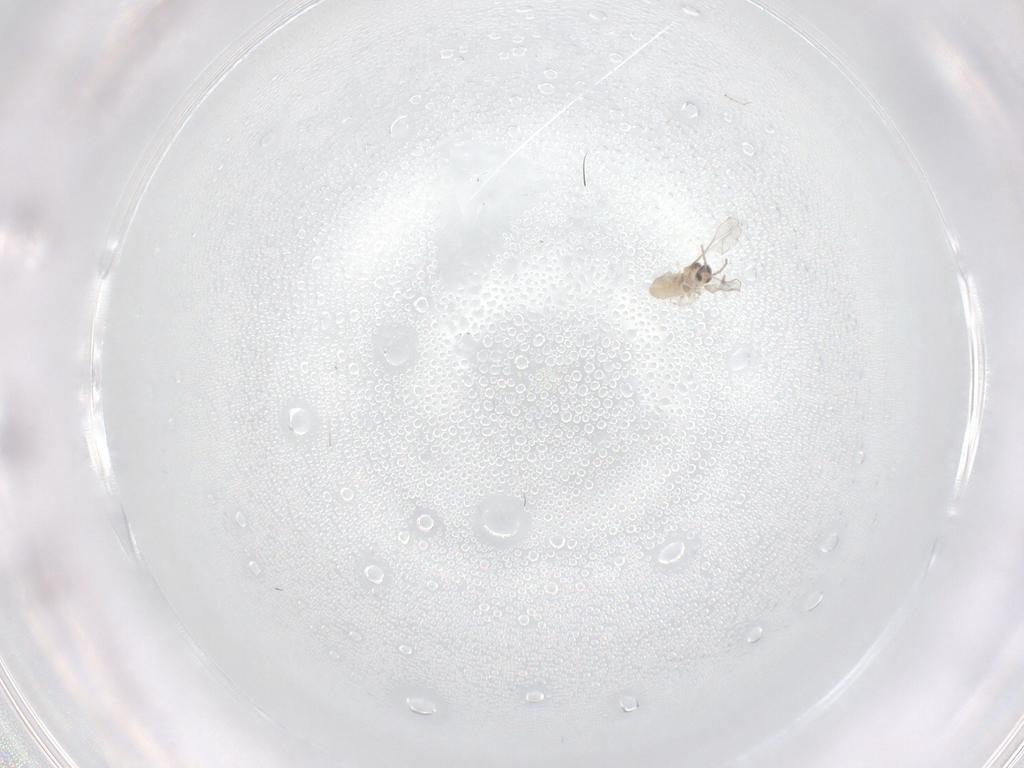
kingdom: Animalia
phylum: Arthropoda
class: Insecta
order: Diptera
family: Cecidomyiidae
